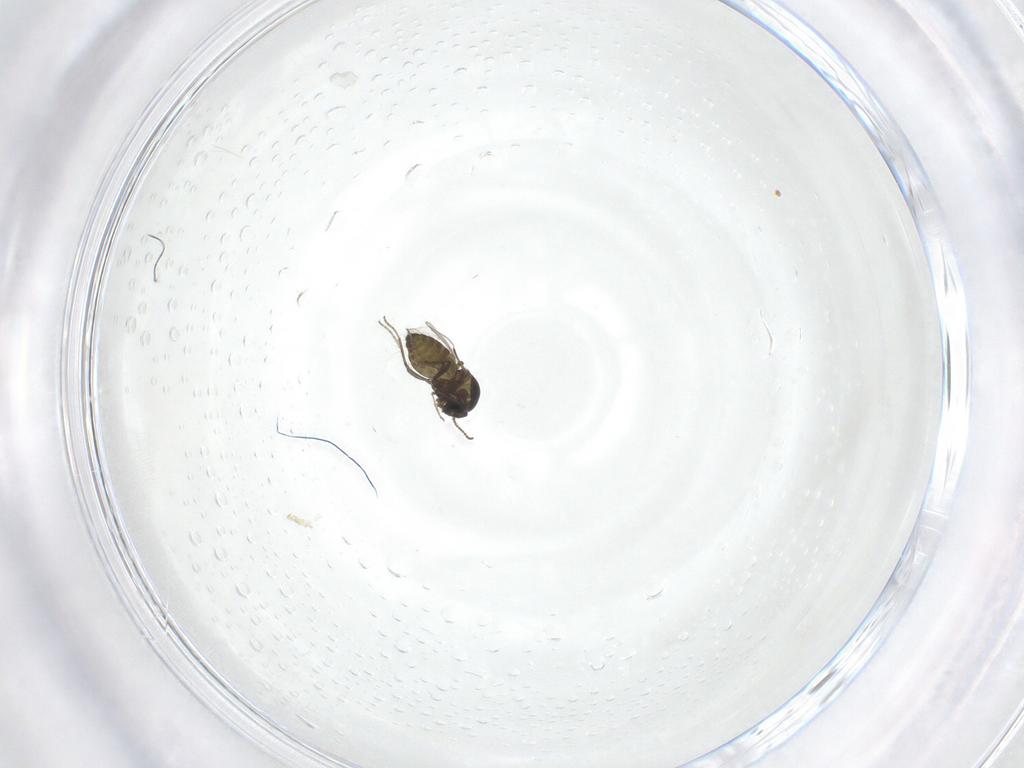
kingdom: Animalia
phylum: Arthropoda
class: Insecta
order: Diptera
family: Ceratopogonidae
